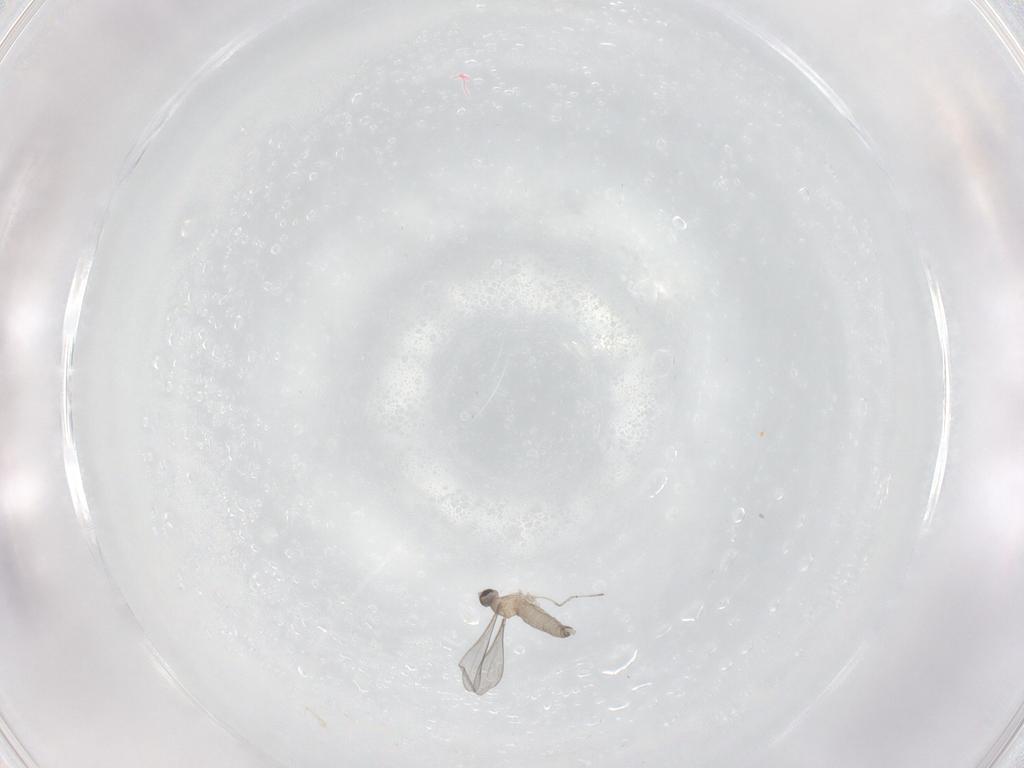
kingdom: Animalia
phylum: Arthropoda
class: Insecta
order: Diptera
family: Cecidomyiidae
